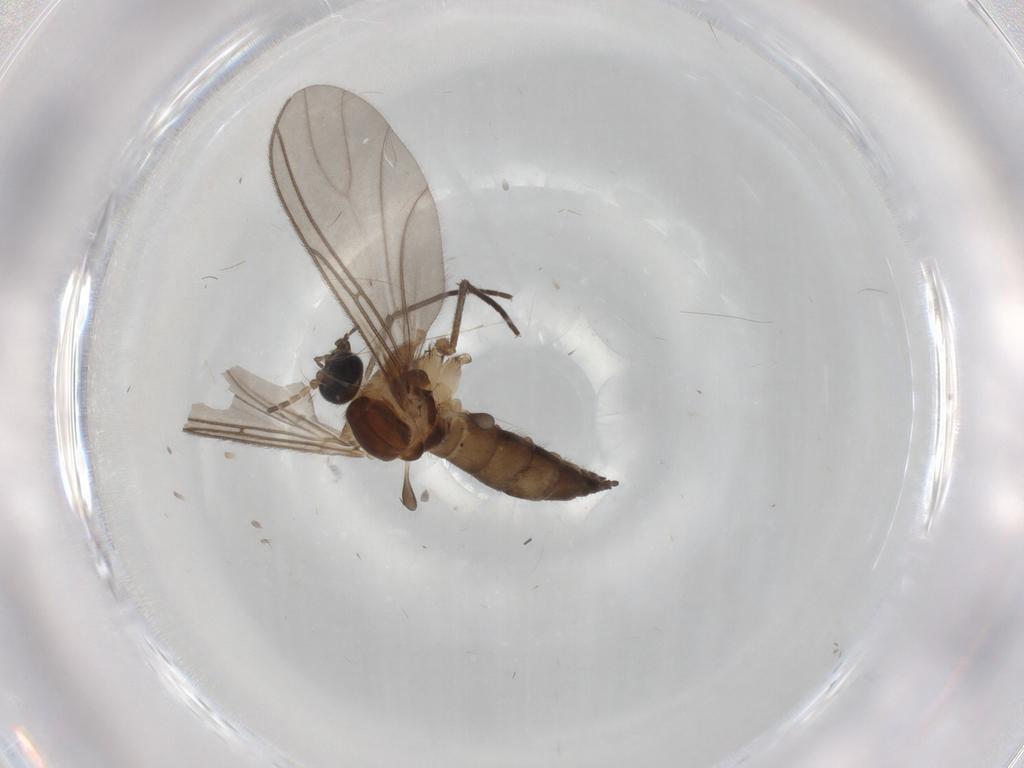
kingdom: Animalia
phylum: Arthropoda
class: Insecta
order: Diptera
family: Sciaridae
